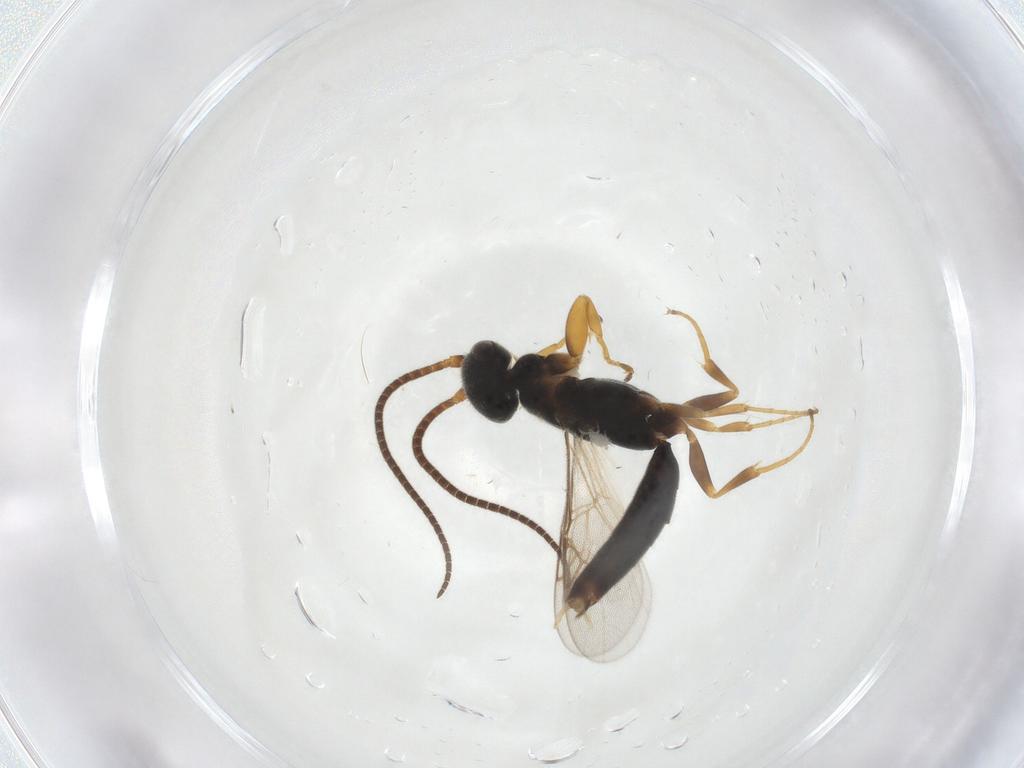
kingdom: Animalia
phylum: Arthropoda
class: Insecta
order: Hymenoptera
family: Sclerogibbidae
